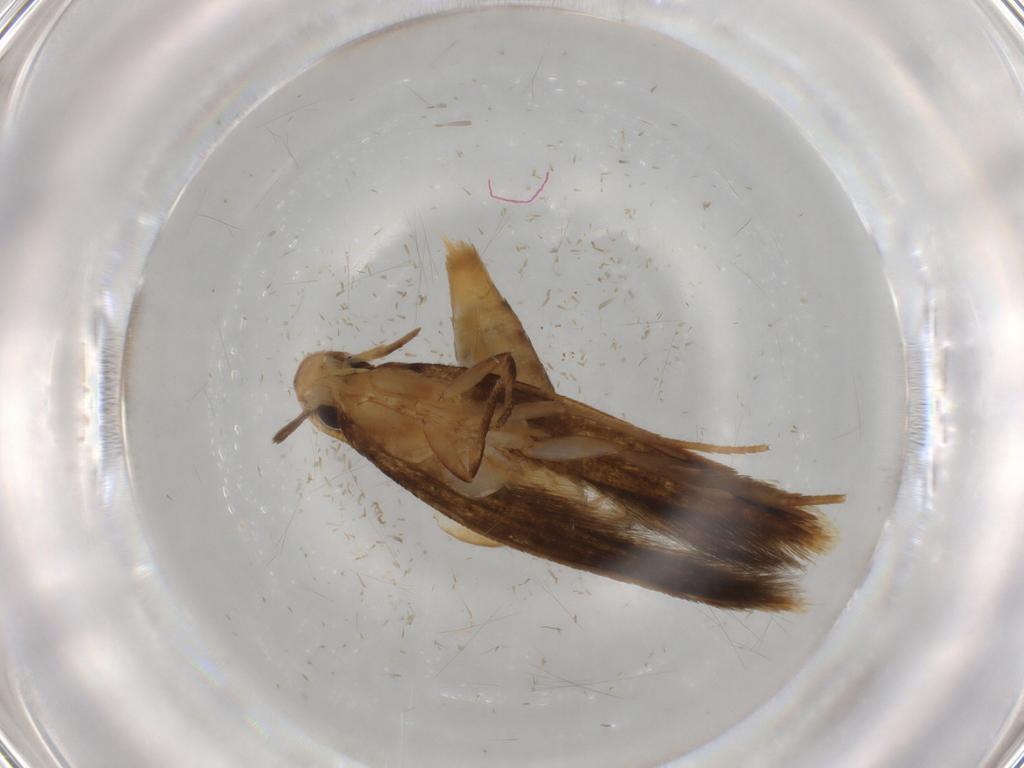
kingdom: Animalia
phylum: Arthropoda
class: Insecta
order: Lepidoptera
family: Tineidae
